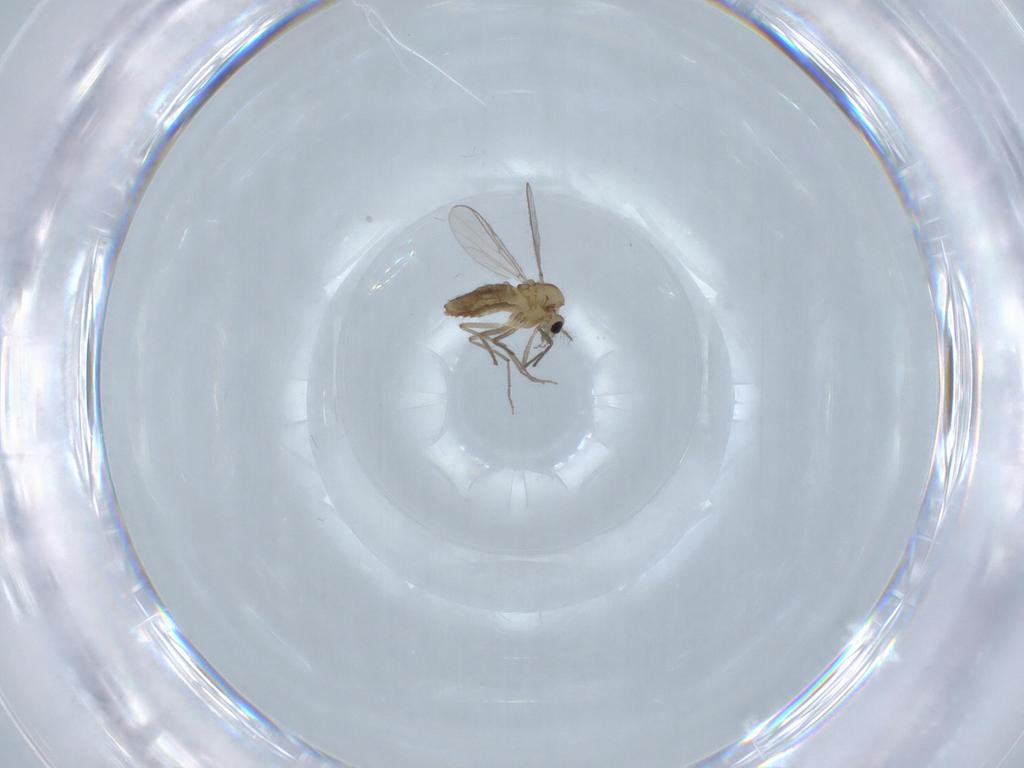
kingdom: Animalia
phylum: Arthropoda
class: Insecta
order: Diptera
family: Chironomidae
